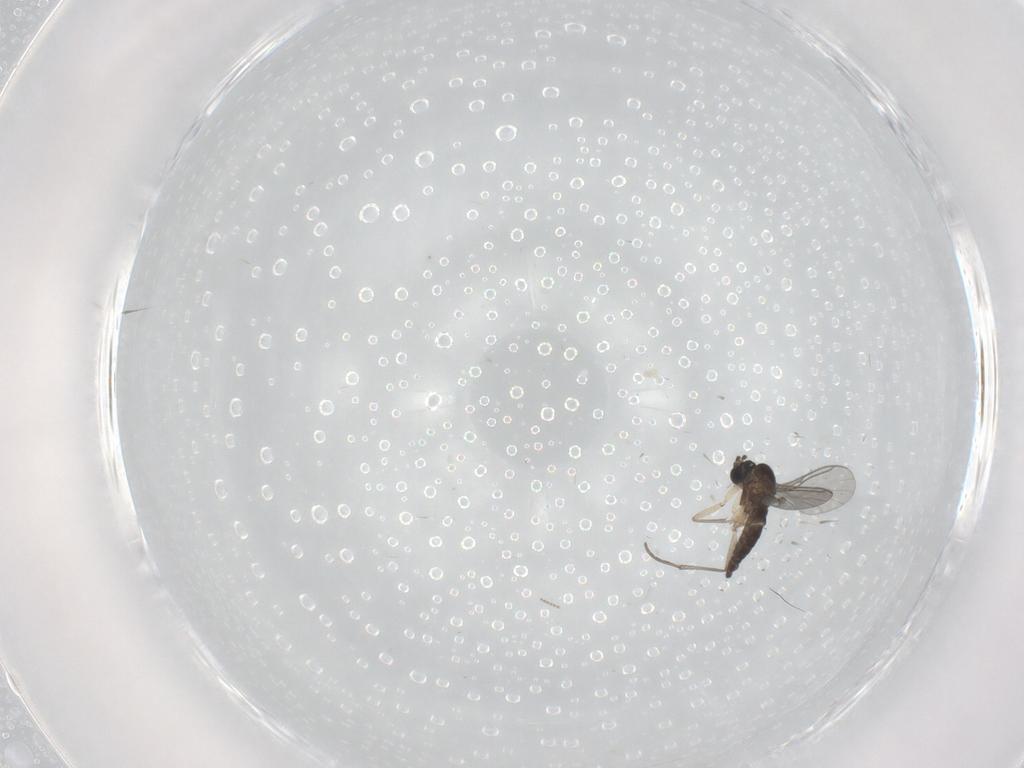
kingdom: Animalia
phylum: Arthropoda
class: Insecta
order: Diptera
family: Sciaridae
